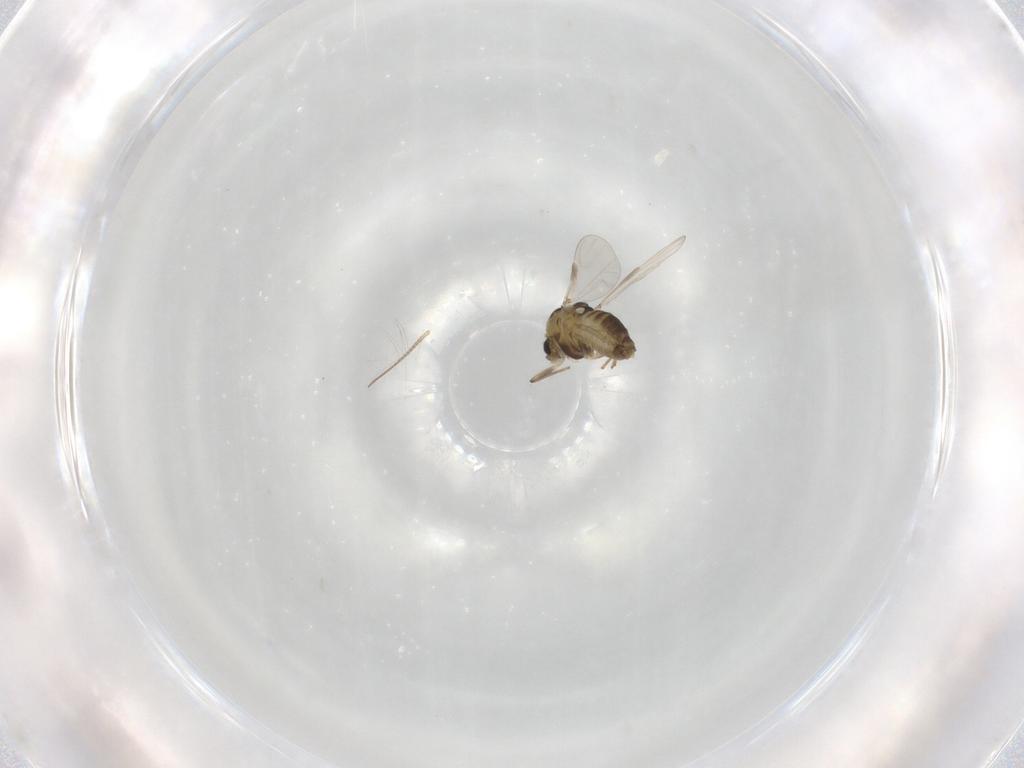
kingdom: Animalia
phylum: Arthropoda
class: Insecta
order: Diptera
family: Chironomidae
